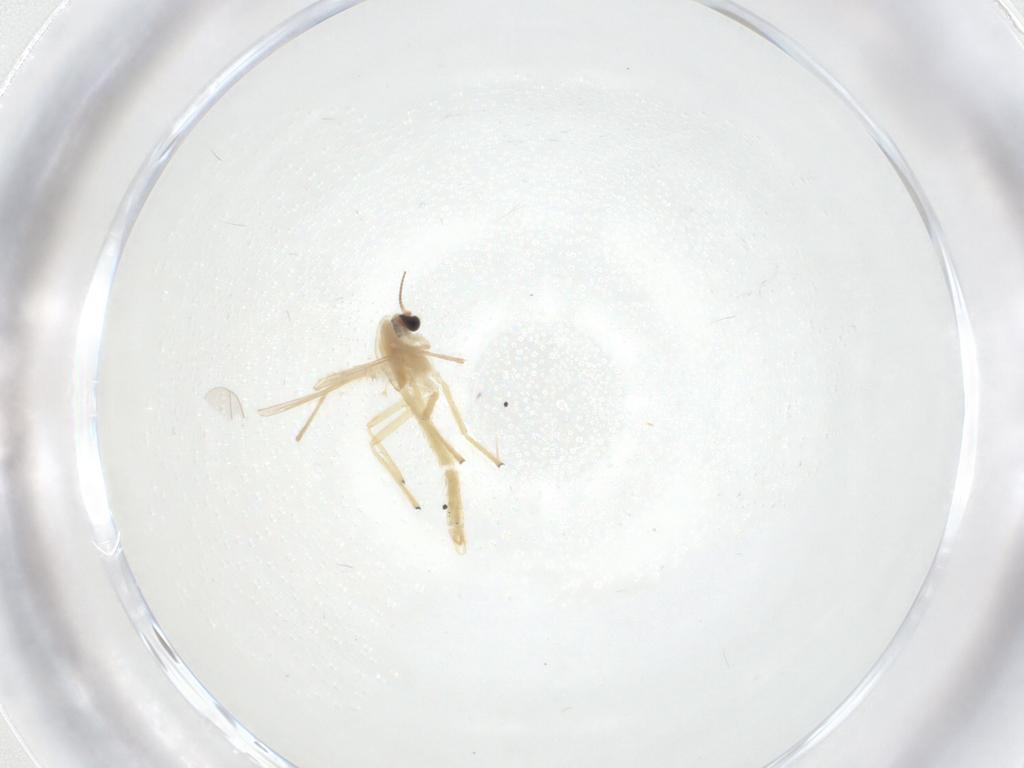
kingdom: Animalia
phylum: Arthropoda
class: Insecta
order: Diptera
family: Chironomidae
